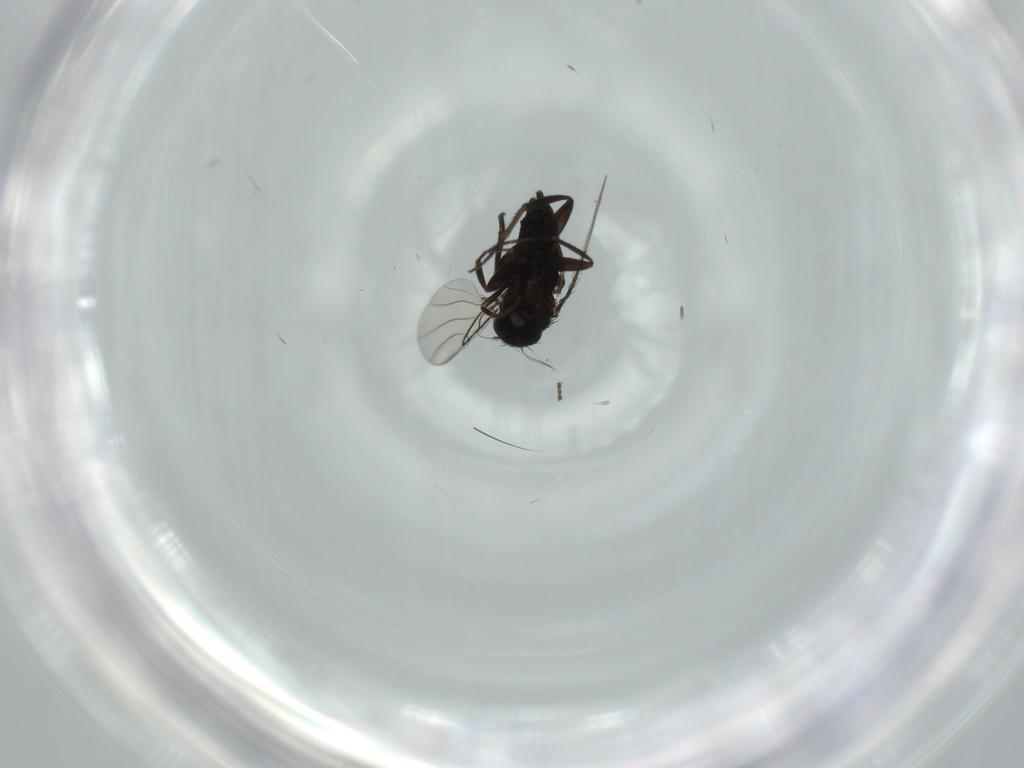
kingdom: Animalia
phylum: Arthropoda
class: Insecta
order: Diptera
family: Phoridae
